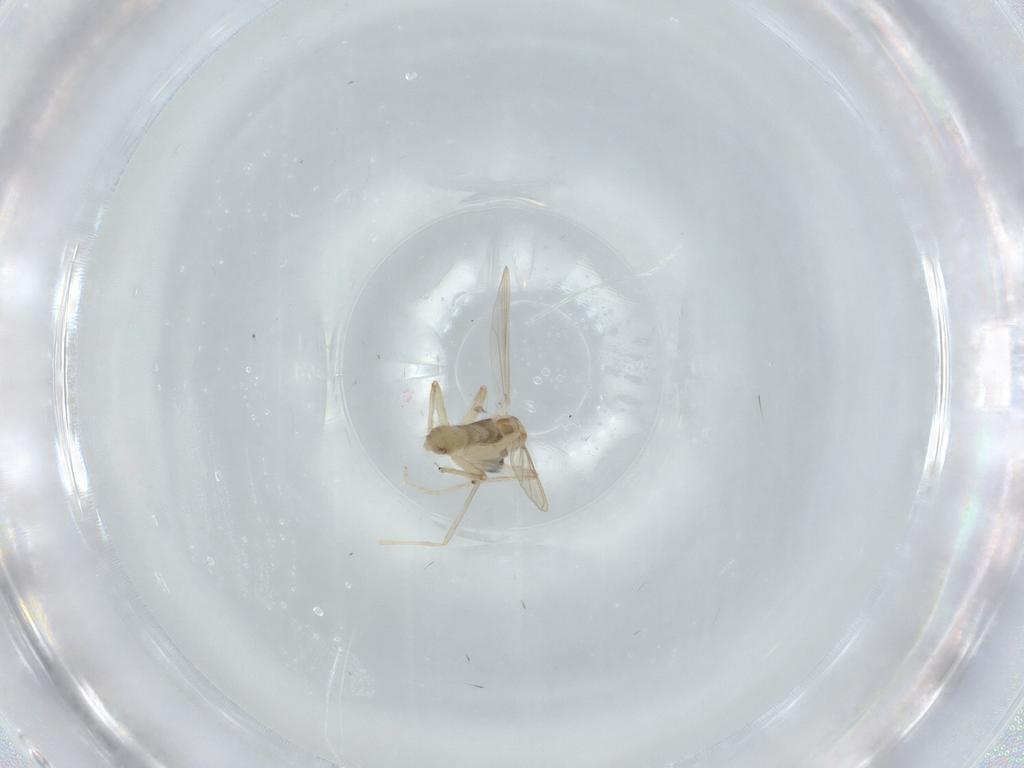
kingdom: Animalia
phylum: Arthropoda
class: Insecta
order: Diptera
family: Chironomidae
